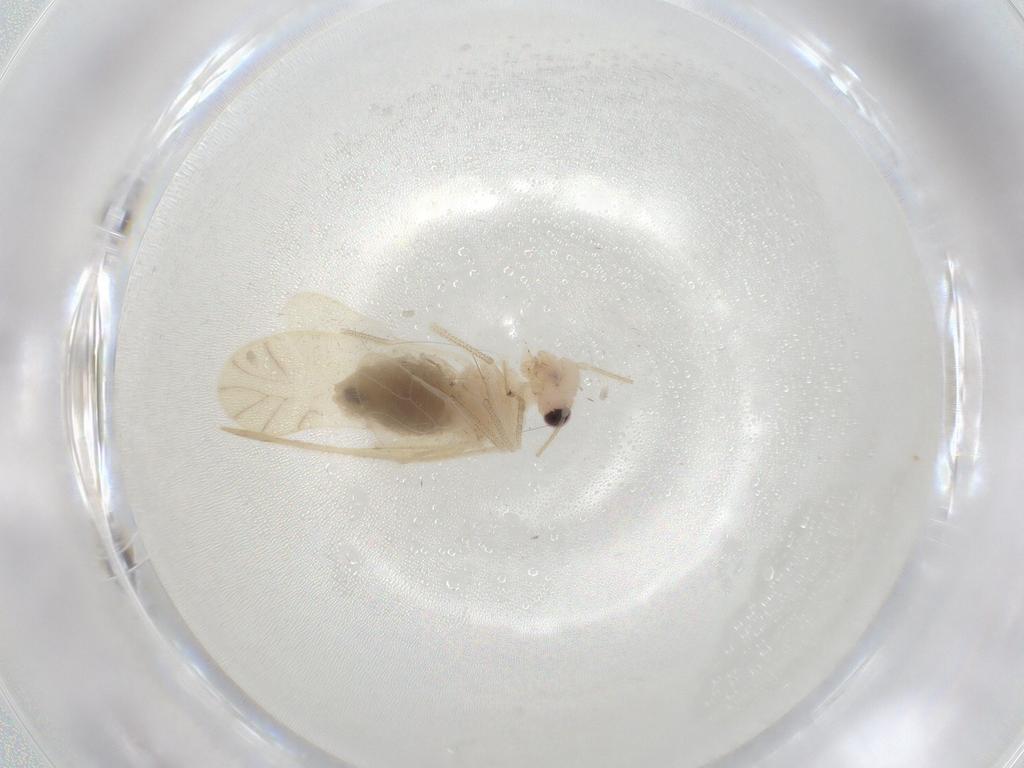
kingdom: Animalia
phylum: Arthropoda
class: Insecta
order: Psocodea
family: Caeciliusidae
